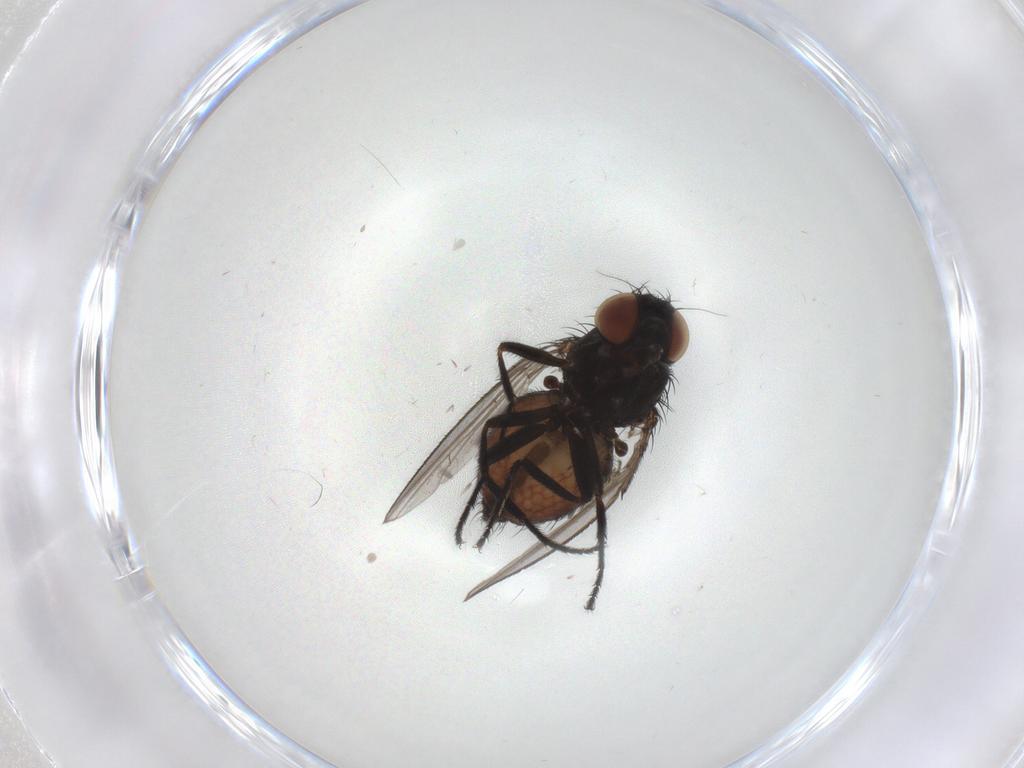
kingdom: Animalia
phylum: Arthropoda
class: Insecta
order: Diptera
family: Milichiidae
